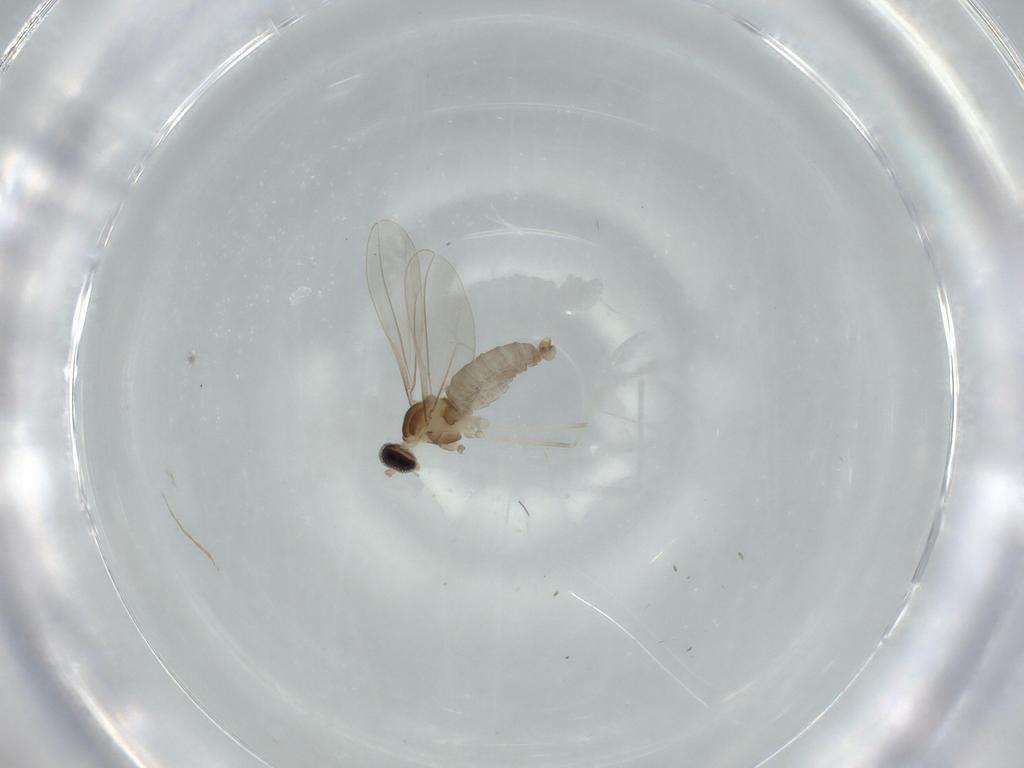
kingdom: Animalia
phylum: Arthropoda
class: Insecta
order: Diptera
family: Cecidomyiidae
